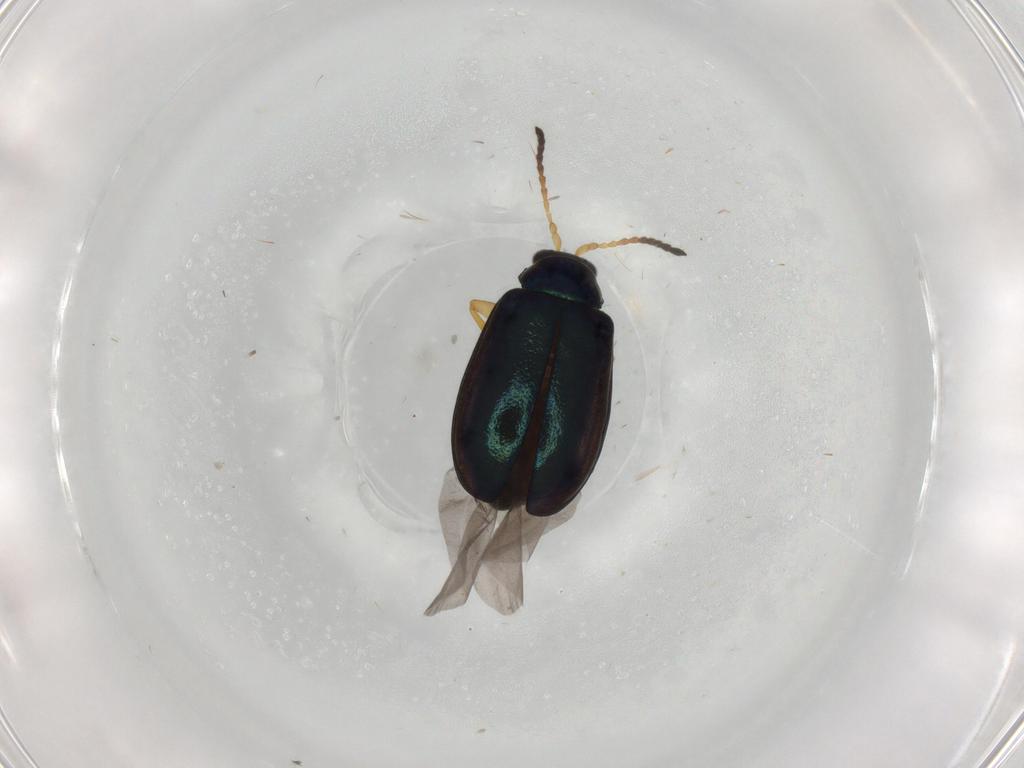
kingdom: Animalia
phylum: Arthropoda
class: Insecta
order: Coleoptera
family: Chrysomelidae
